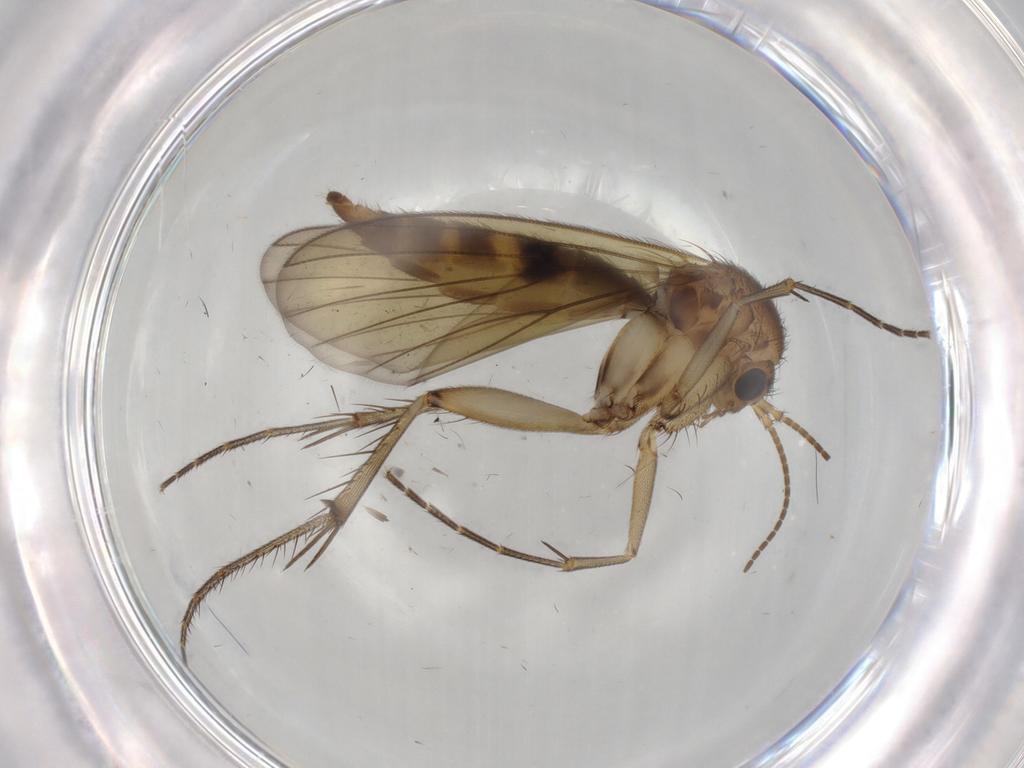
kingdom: Animalia
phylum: Arthropoda
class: Insecta
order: Diptera
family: Mycetophilidae
